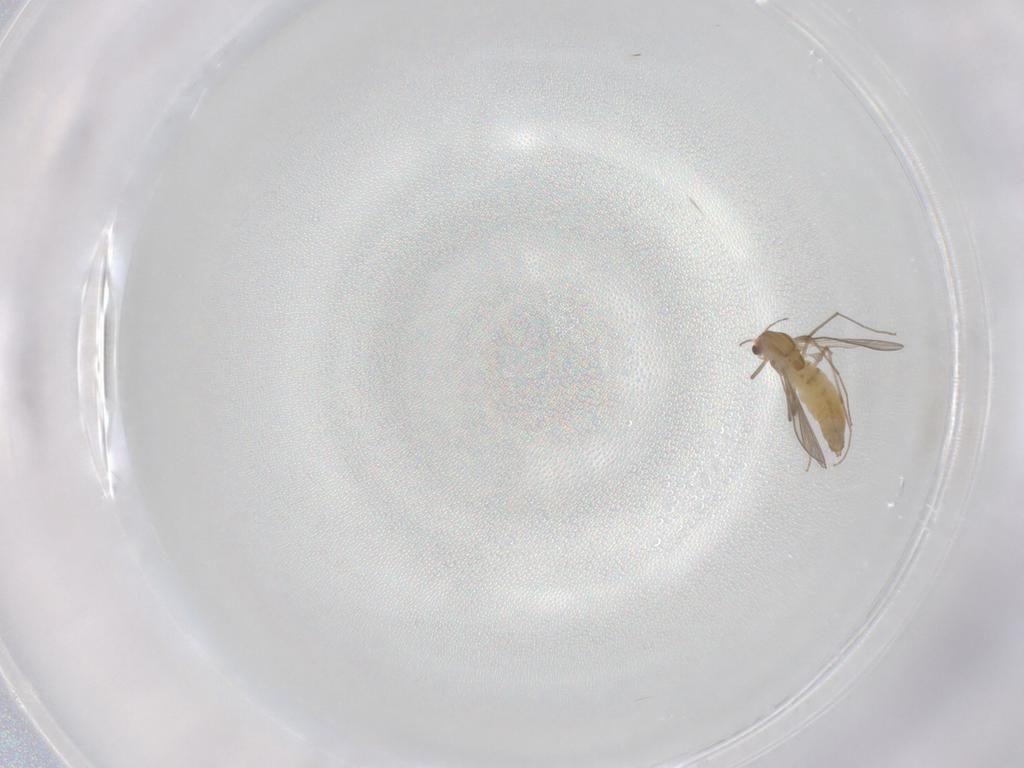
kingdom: Animalia
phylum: Arthropoda
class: Insecta
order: Diptera
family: Chironomidae
